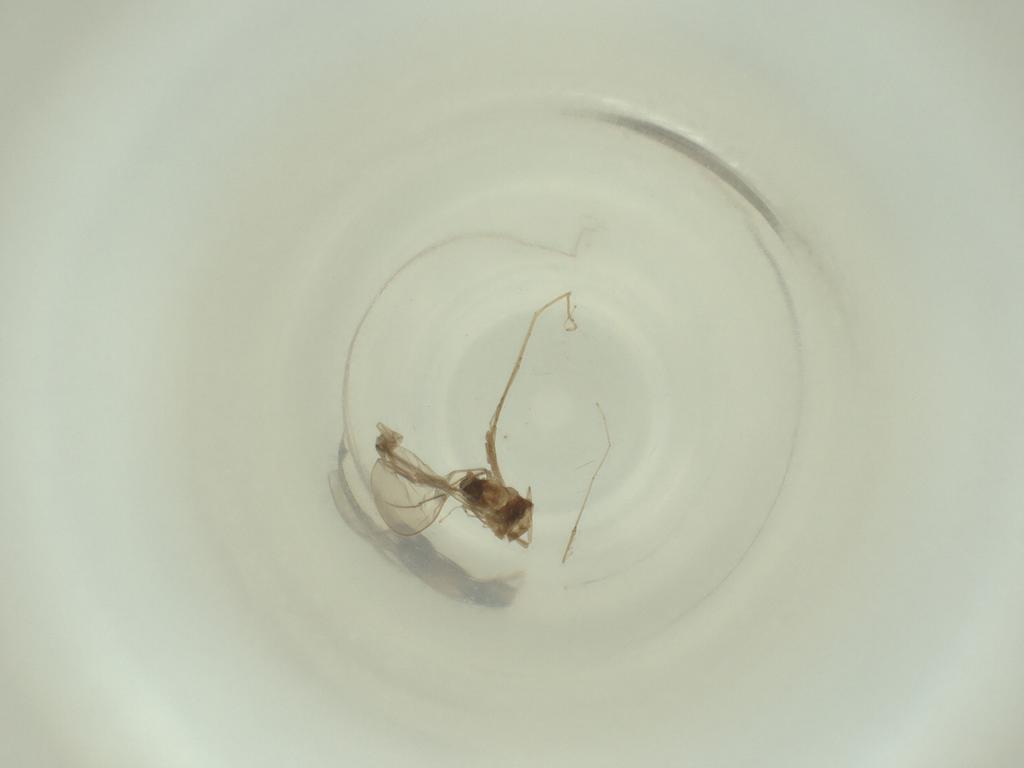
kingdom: Animalia
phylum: Arthropoda
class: Insecta
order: Diptera
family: Cecidomyiidae
